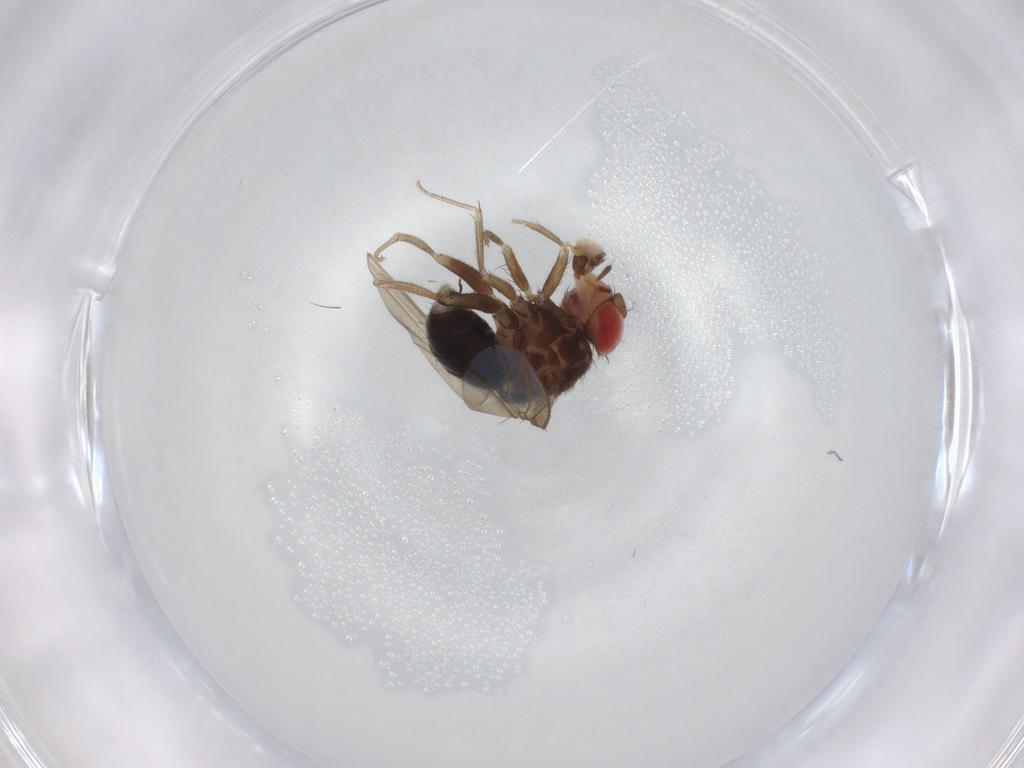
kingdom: Animalia
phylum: Arthropoda
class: Insecta
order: Diptera
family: Drosophilidae
